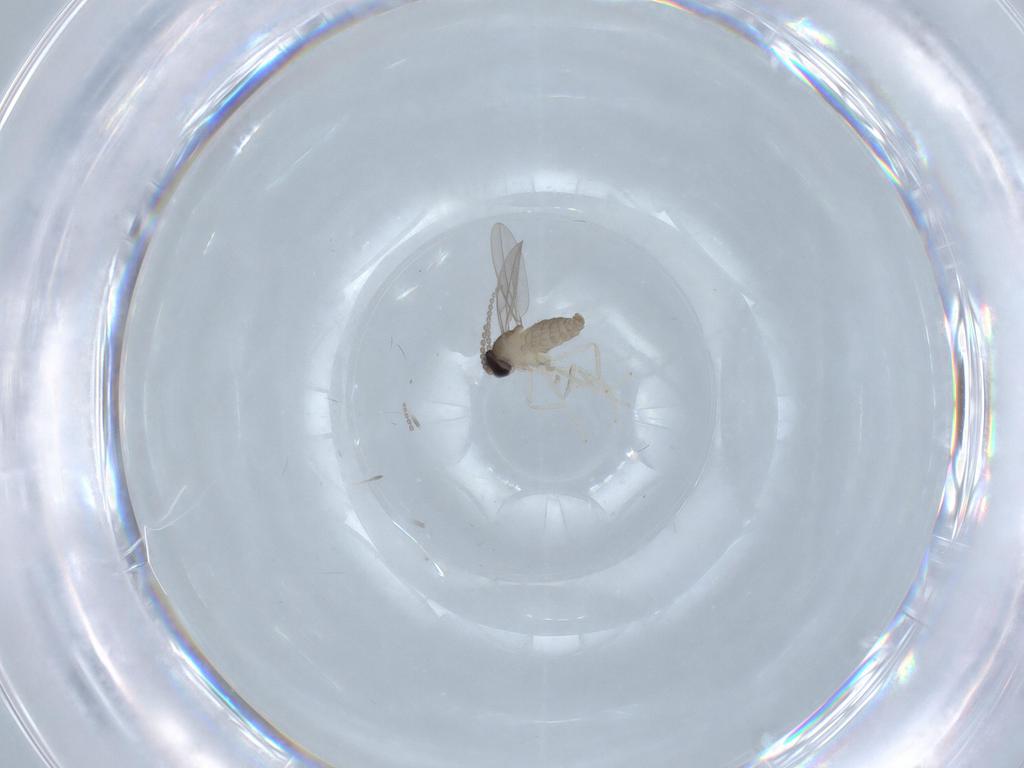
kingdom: Animalia
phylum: Arthropoda
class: Insecta
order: Diptera
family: Cecidomyiidae
